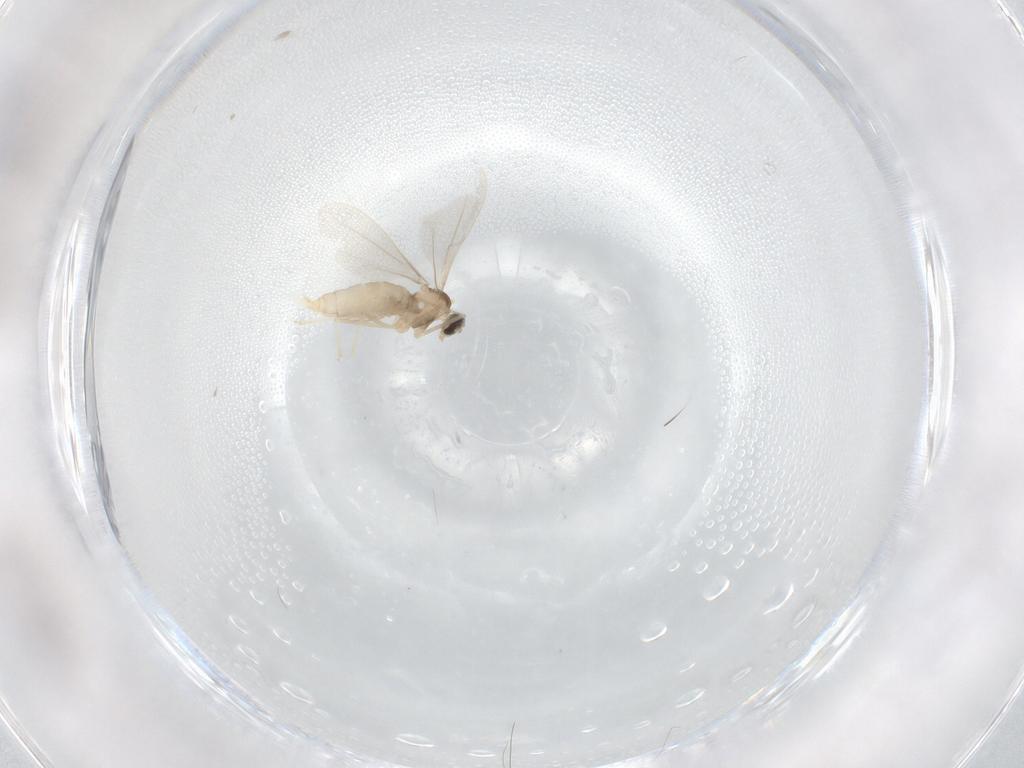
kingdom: Animalia
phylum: Arthropoda
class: Insecta
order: Diptera
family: Cecidomyiidae
